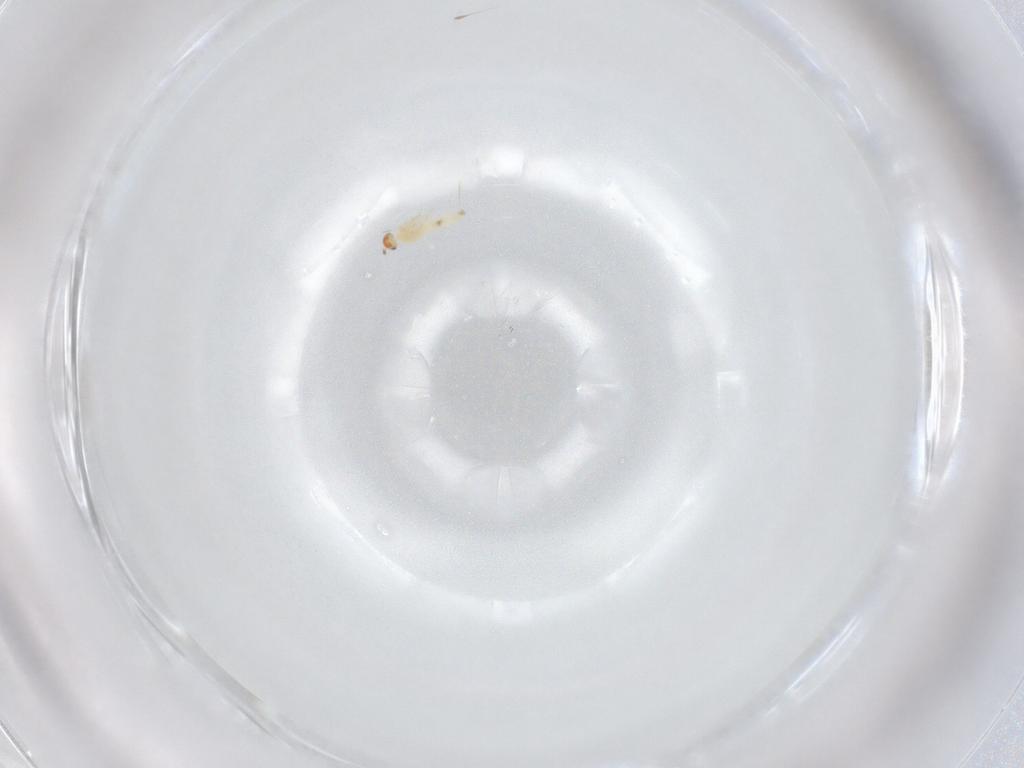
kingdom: Animalia
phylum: Arthropoda
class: Insecta
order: Diptera
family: Cecidomyiidae
